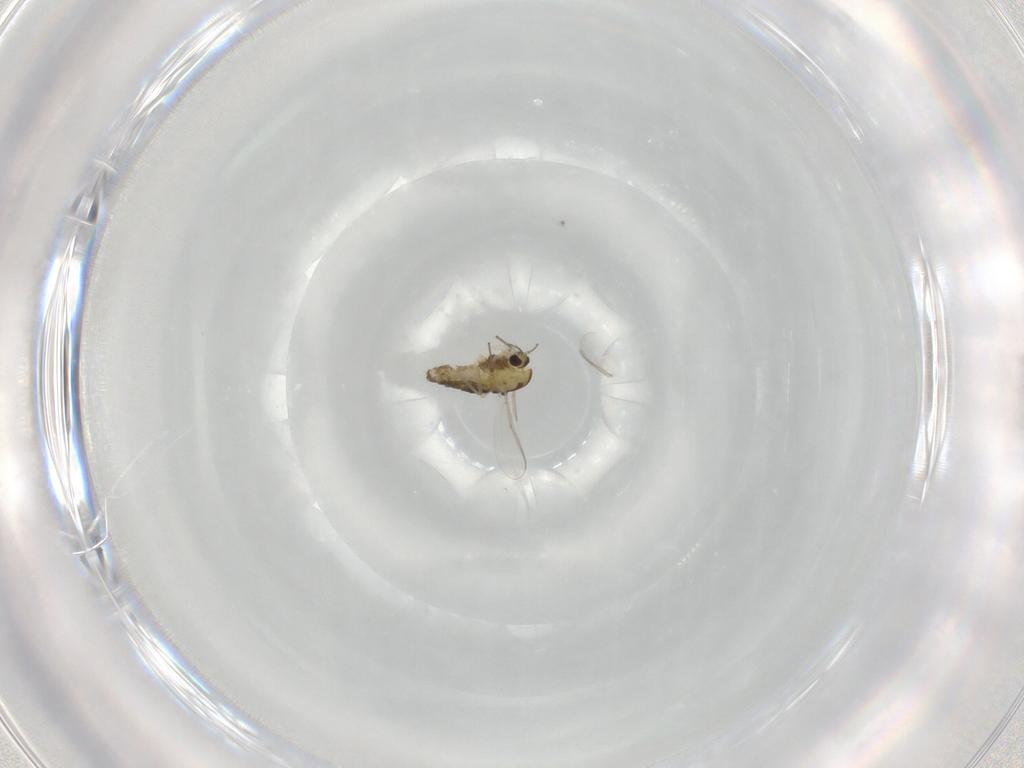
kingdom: Animalia
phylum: Arthropoda
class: Insecta
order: Diptera
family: Chironomidae
